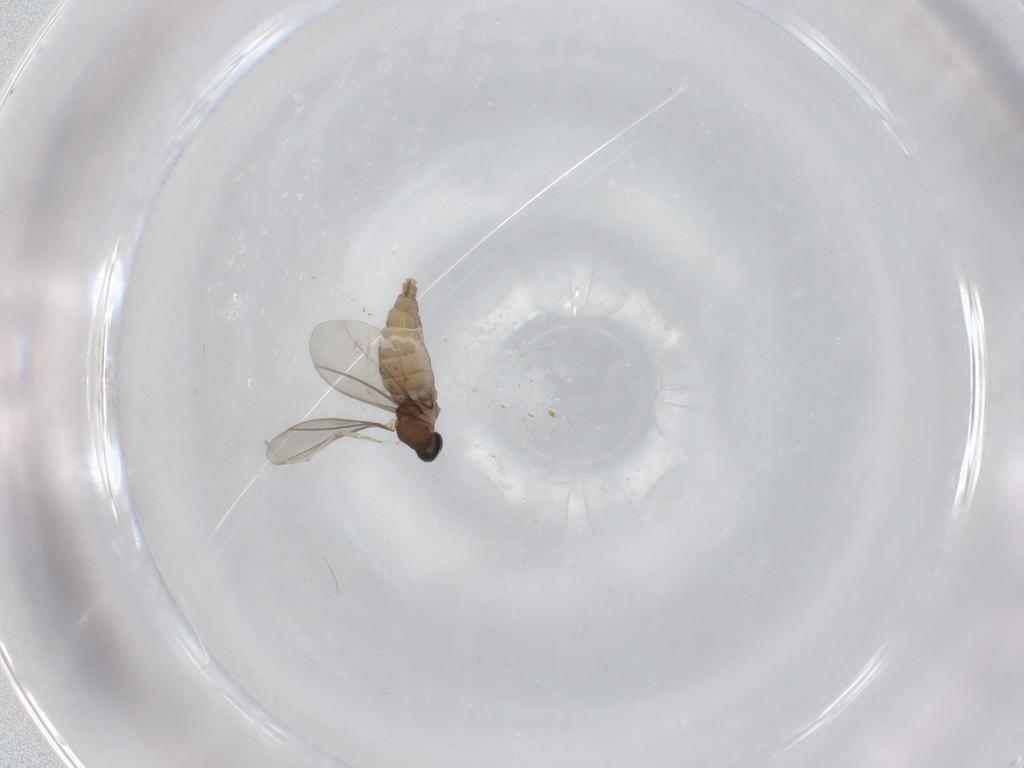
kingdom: Animalia
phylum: Arthropoda
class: Insecta
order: Diptera
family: Cecidomyiidae
